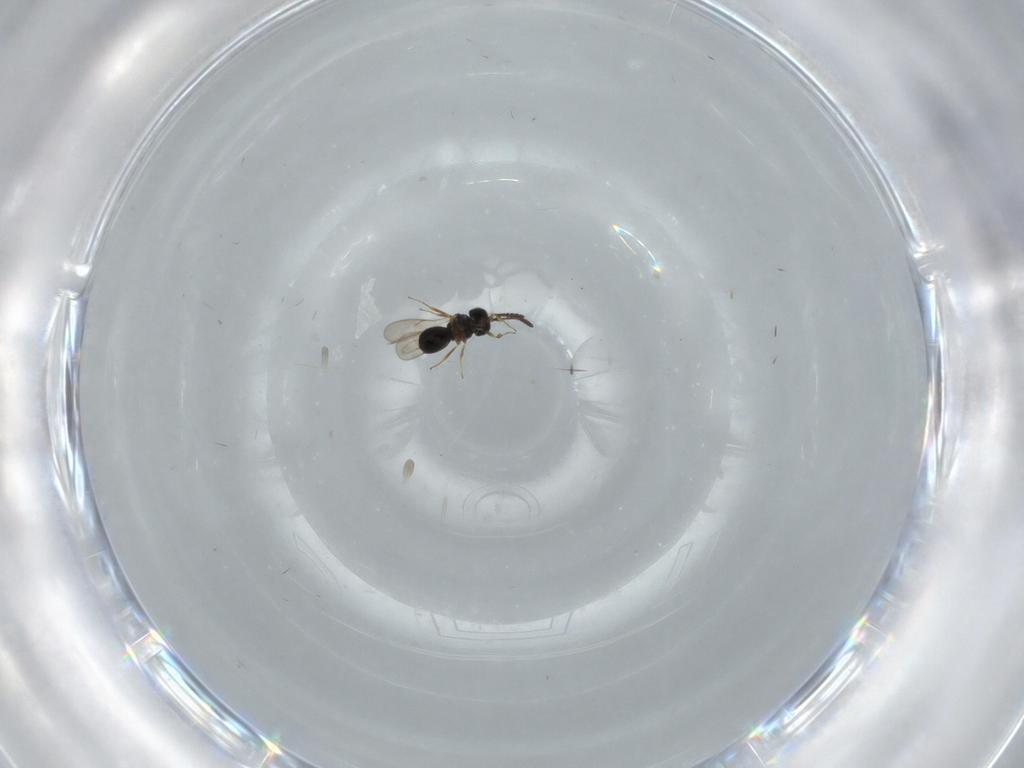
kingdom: Animalia
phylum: Arthropoda
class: Insecta
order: Hymenoptera
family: Scelionidae
